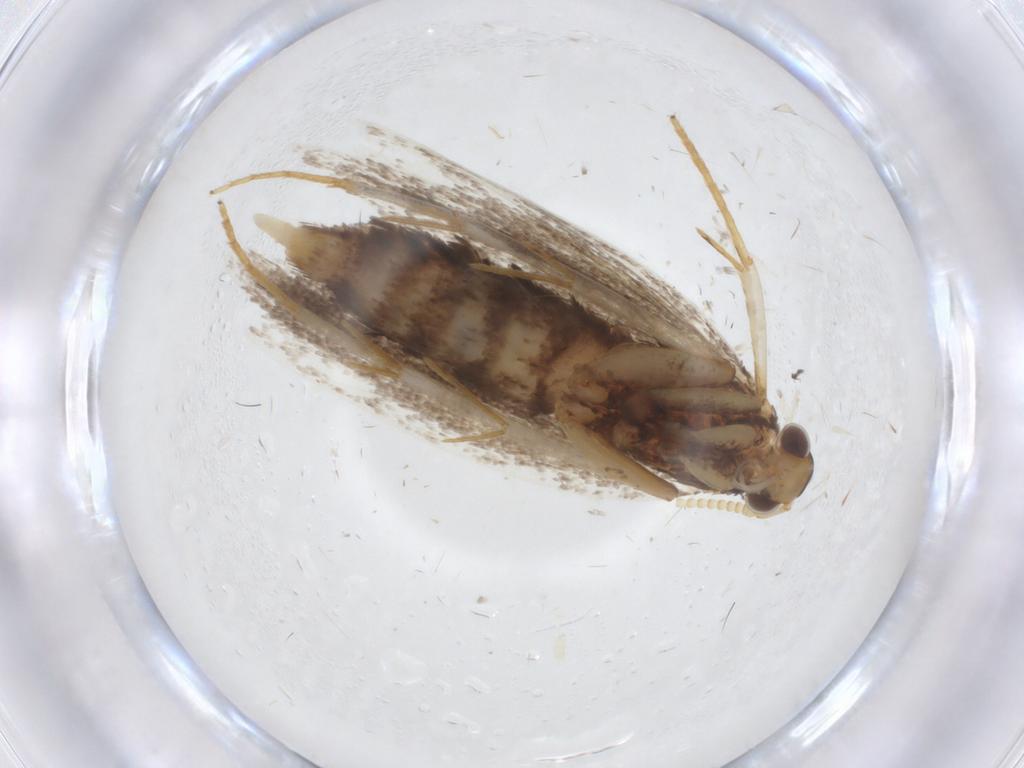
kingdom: Animalia
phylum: Arthropoda
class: Insecta
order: Lepidoptera
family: Lecithoceridae
